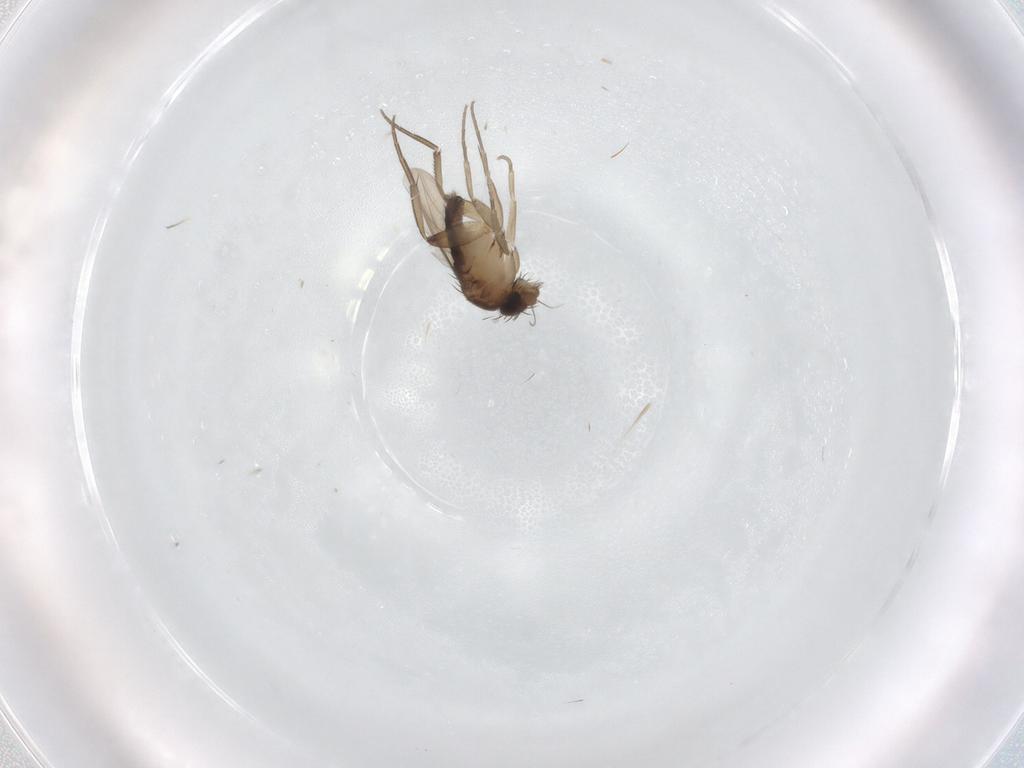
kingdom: Animalia
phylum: Arthropoda
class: Insecta
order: Diptera
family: Phoridae
